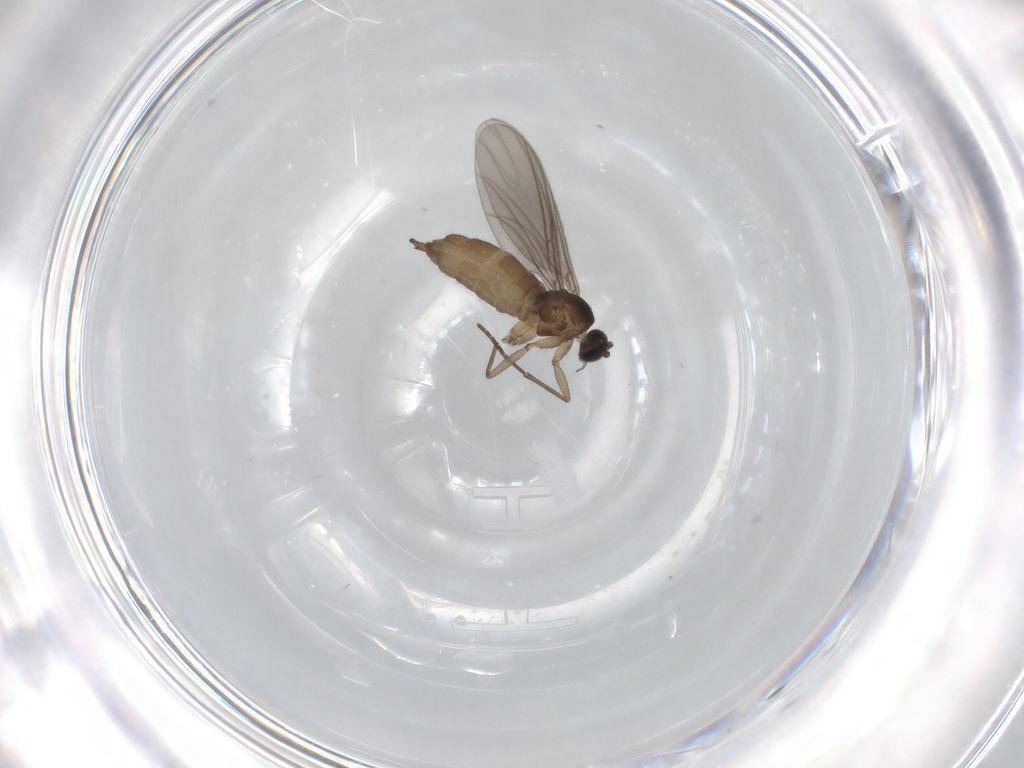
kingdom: Animalia
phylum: Arthropoda
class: Insecta
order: Diptera
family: Sciaridae
